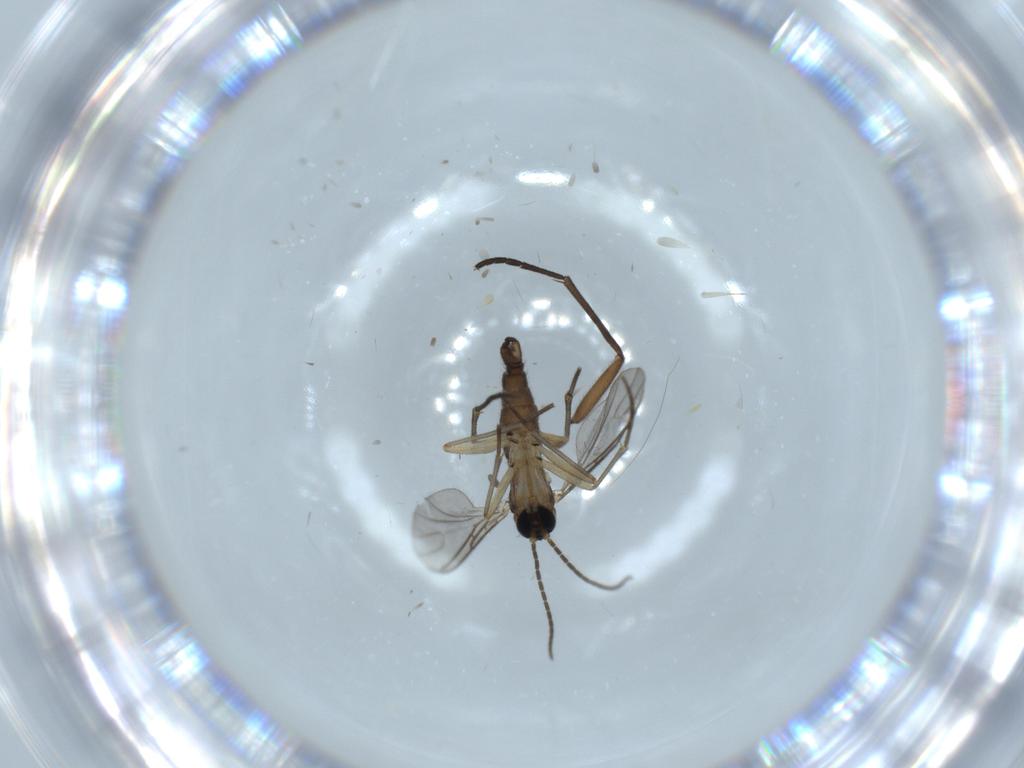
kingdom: Animalia
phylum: Arthropoda
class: Insecta
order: Diptera
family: Sciaridae
